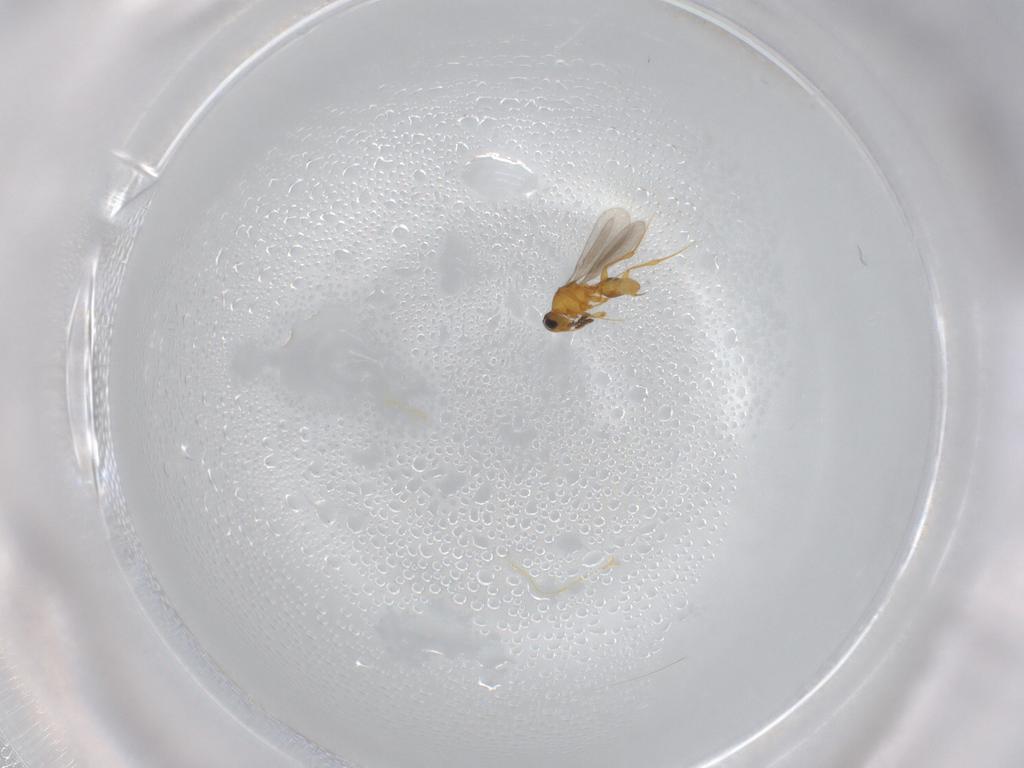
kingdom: Animalia
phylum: Arthropoda
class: Insecta
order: Hymenoptera
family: Platygastridae
